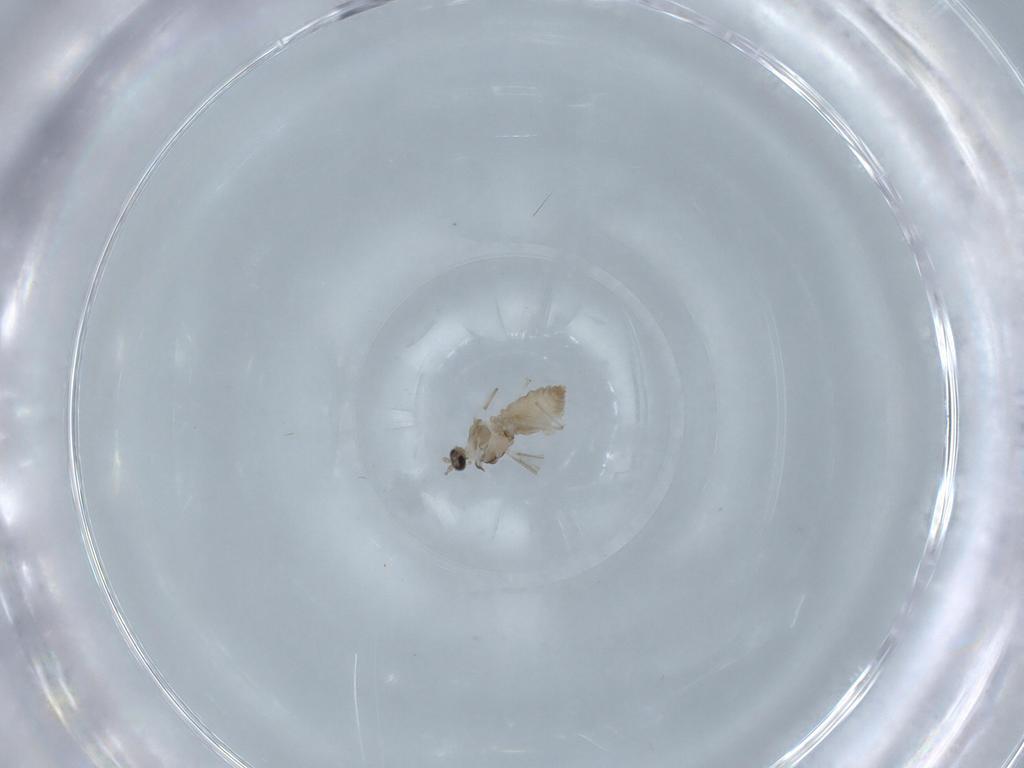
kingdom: Animalia
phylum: Arthropoda
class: Insecta
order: Diptera
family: Cecidomyiidae
